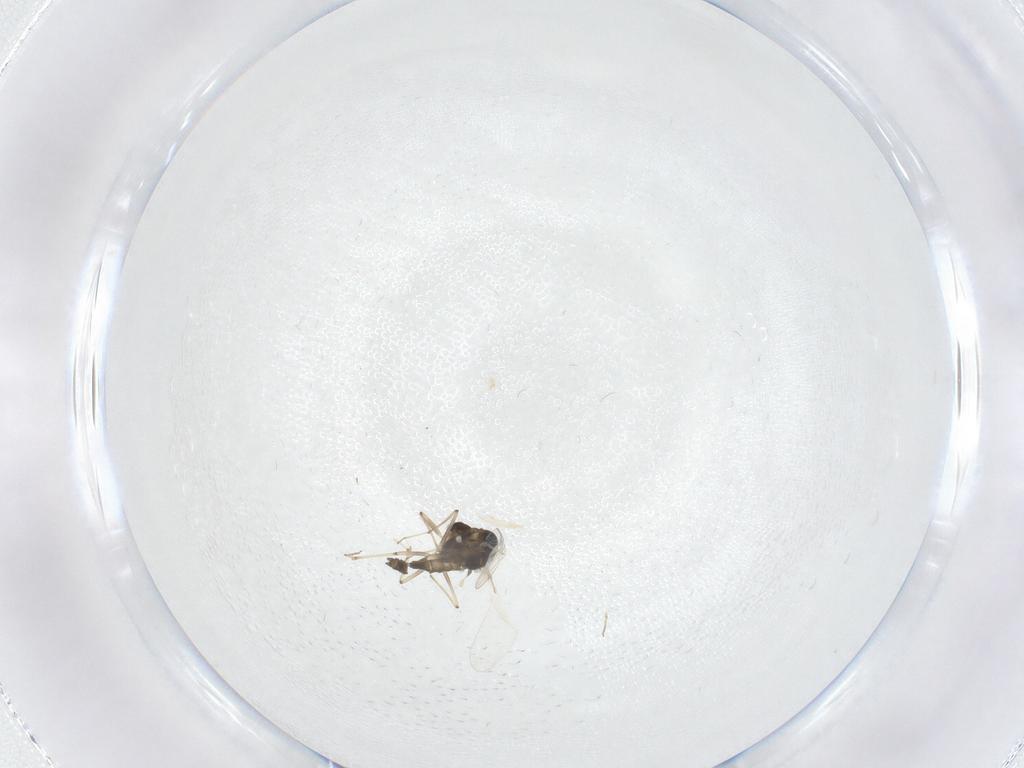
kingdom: Animalia
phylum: Arthropoda
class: Insecta
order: Diptera
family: Chironomidae
